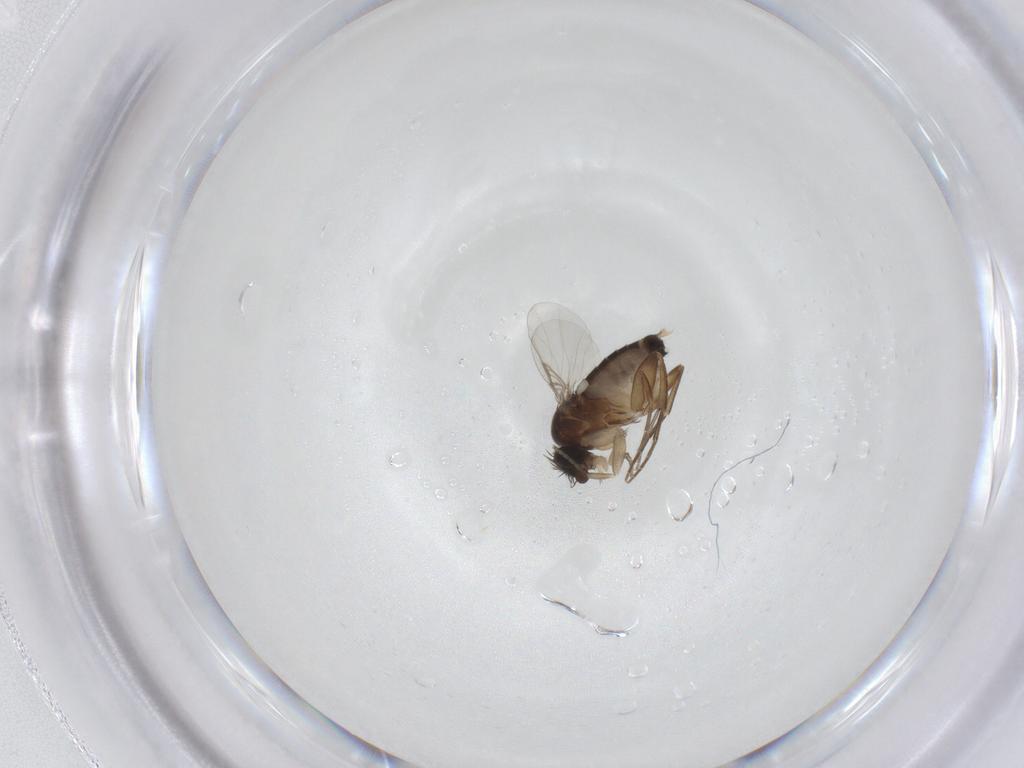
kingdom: Animalia
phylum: Arthropoda
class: Insecta
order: Diptera
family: Phoridae
